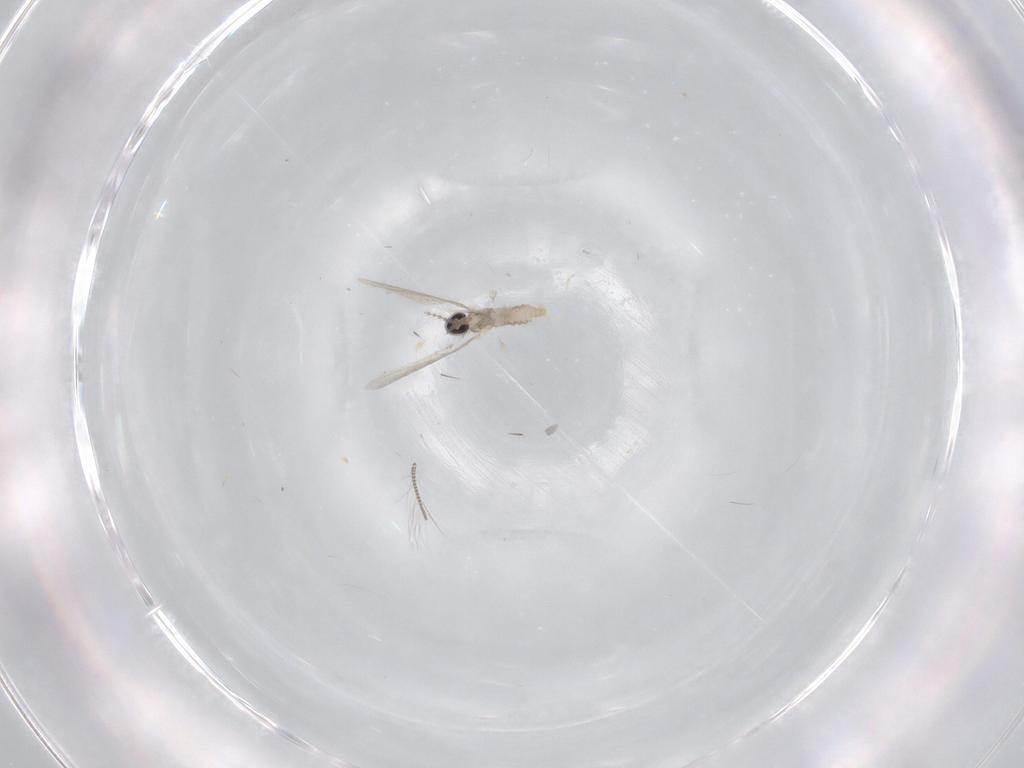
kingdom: Animalia
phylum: Arthropoda
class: Insecta
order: Diptera
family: Cecidomyiidae
